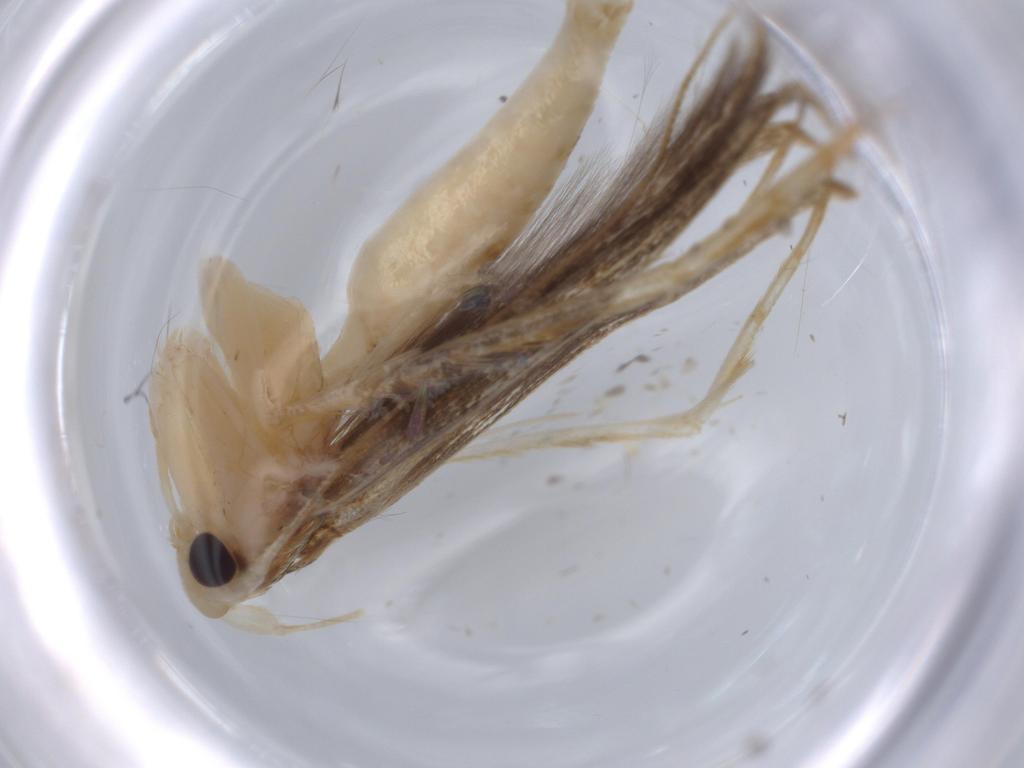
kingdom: Animalia
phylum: Arthropoda
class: Insecta
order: Lepidoptera
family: Ypsolophidae
